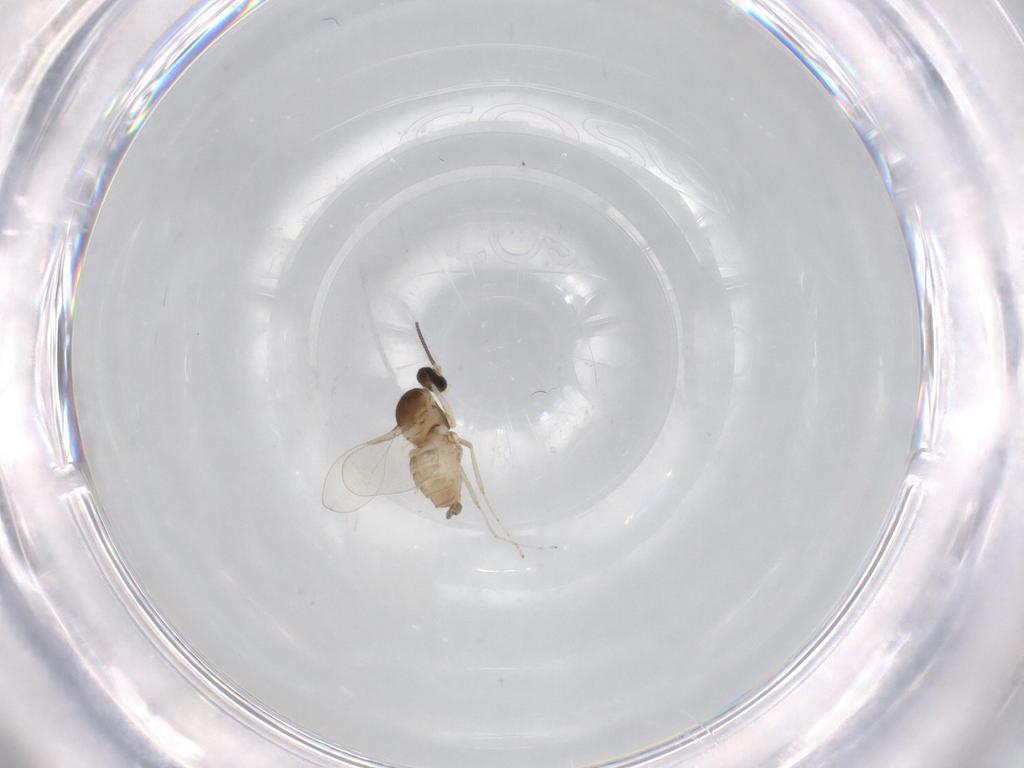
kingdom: Animalia
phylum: Arthropoda
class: Insecta
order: Diptera
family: Cecidomyiidae
